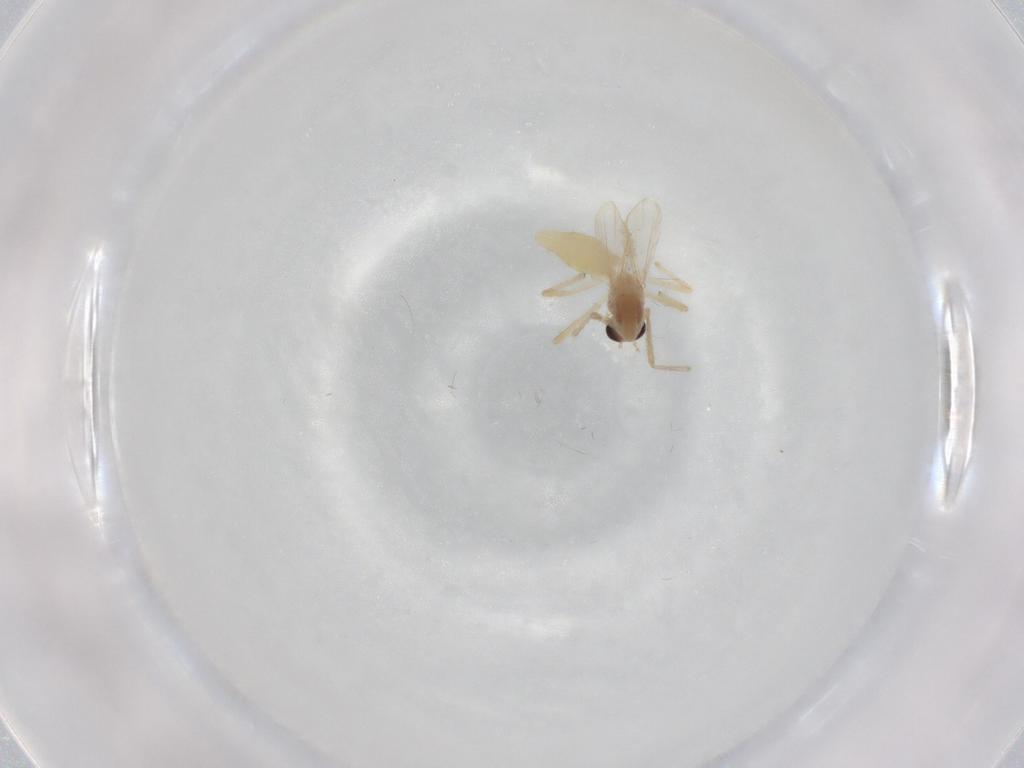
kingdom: Animalia
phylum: Arthropoda
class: Insecta
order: Diptera
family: Chironomidae
